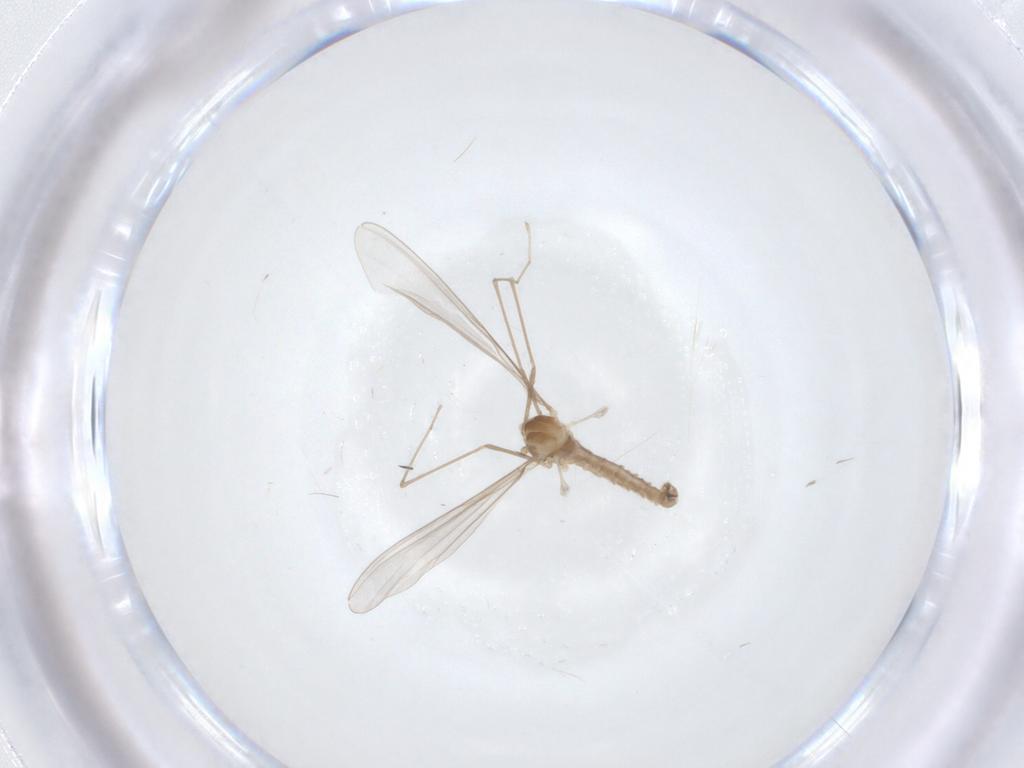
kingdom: Animalia
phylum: Arthropoda
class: Insecta
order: Diptera
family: Cecidomyiidae
